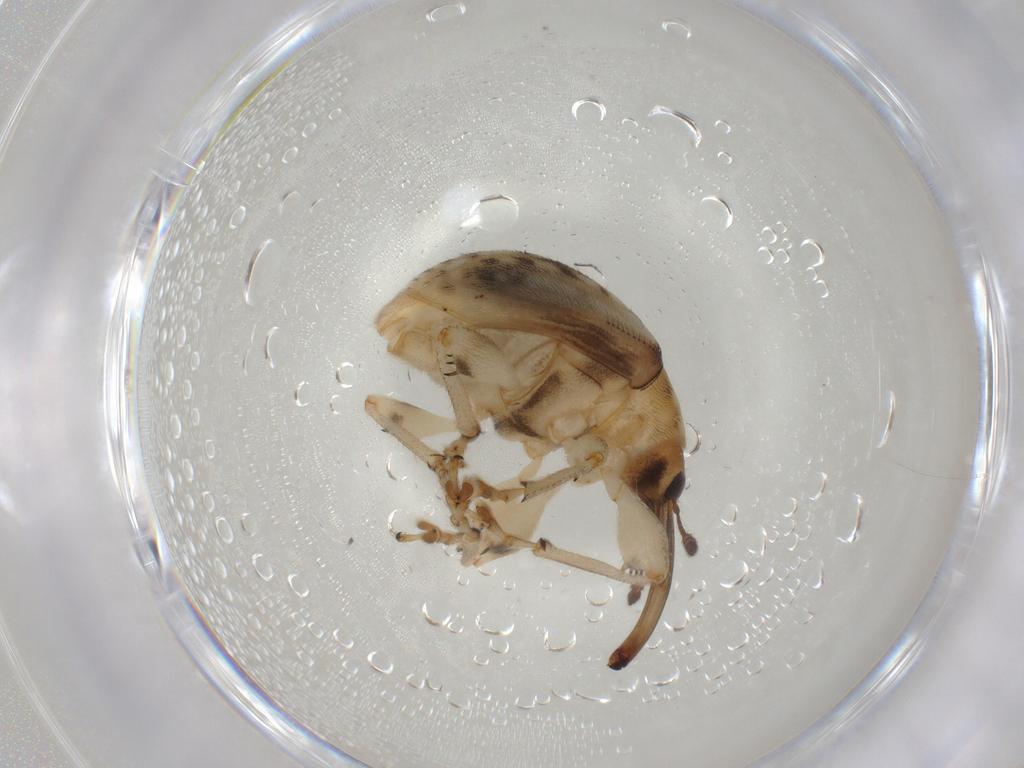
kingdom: Animalia
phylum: Arthropoda
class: Insecta
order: Coleoptera
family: Brentidae
